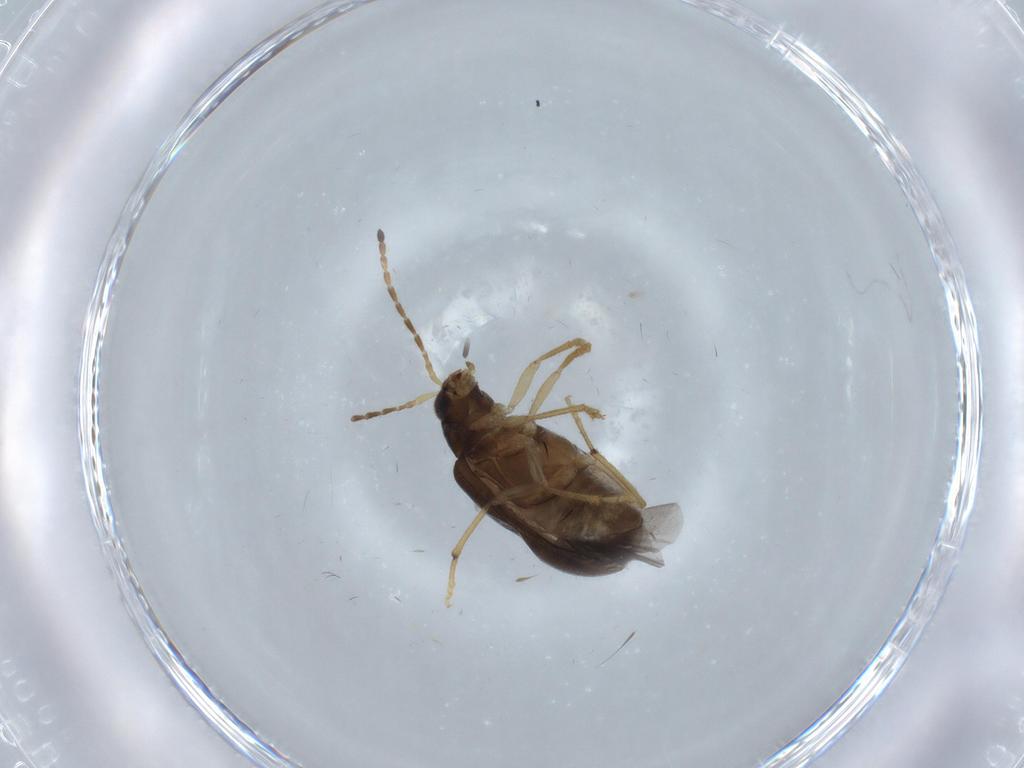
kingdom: Animalia
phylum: Arthropoda
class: Insecta
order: Coleoptera
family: Chrysomelidae
